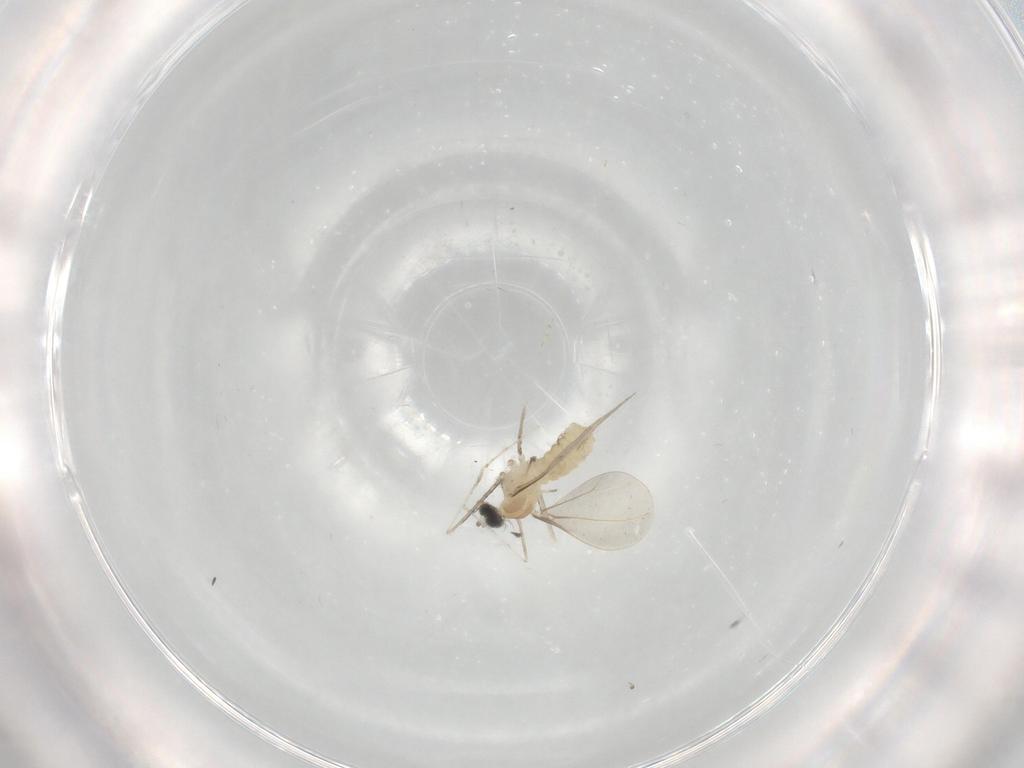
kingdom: Animalia
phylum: Arthropoda
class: Insecta
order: Diptera
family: Cecidomyiidae
